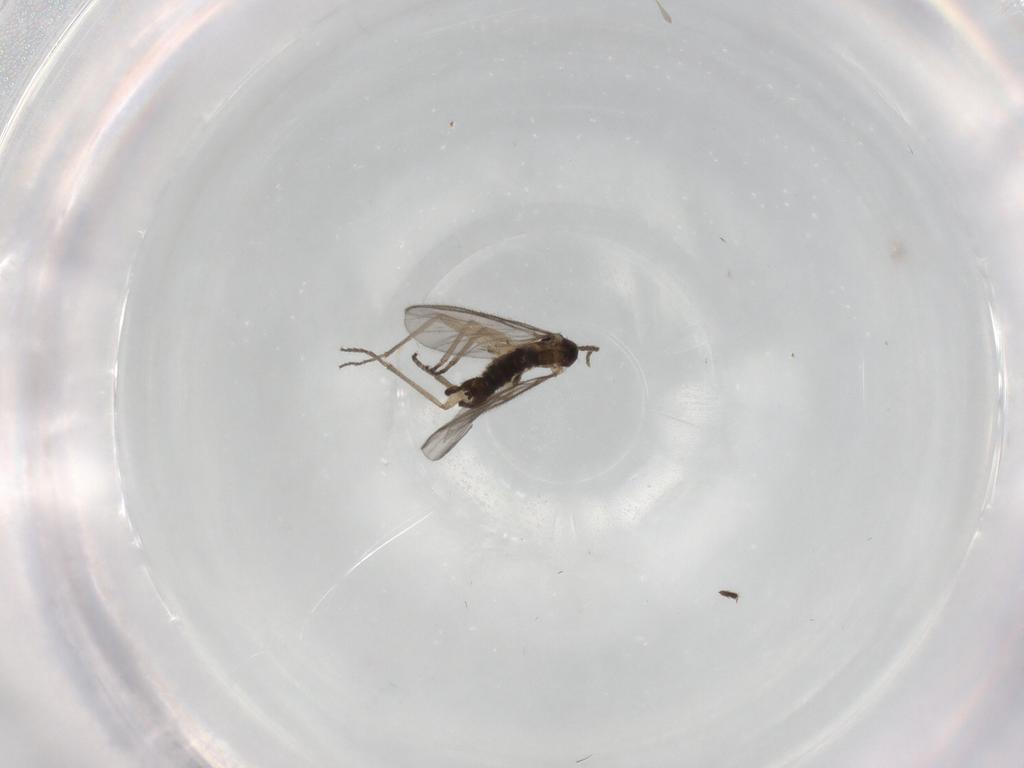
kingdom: Animalia
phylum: Arthropoda
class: Insecta
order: Diptera
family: Sciaridae
